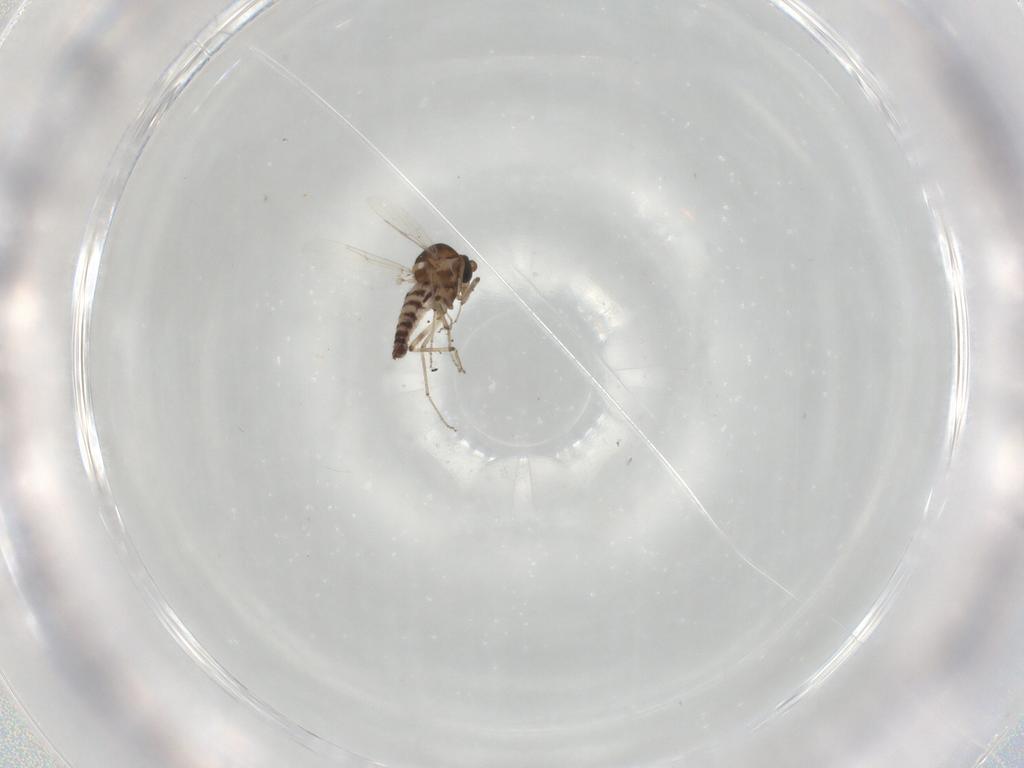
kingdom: Animalia
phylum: Arthropoda
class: Insecta
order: Diptera
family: Ceratopogonidae
